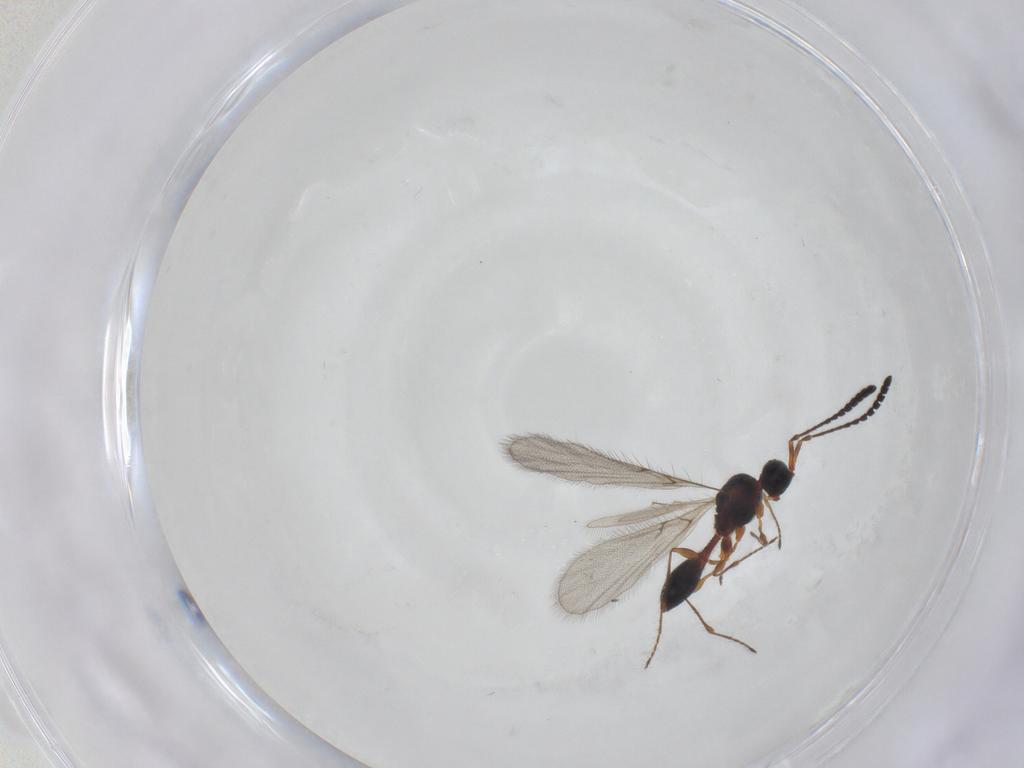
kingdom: Animalia
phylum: Arthropoda
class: Insecta
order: Hymenoptera
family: Diapriidae
